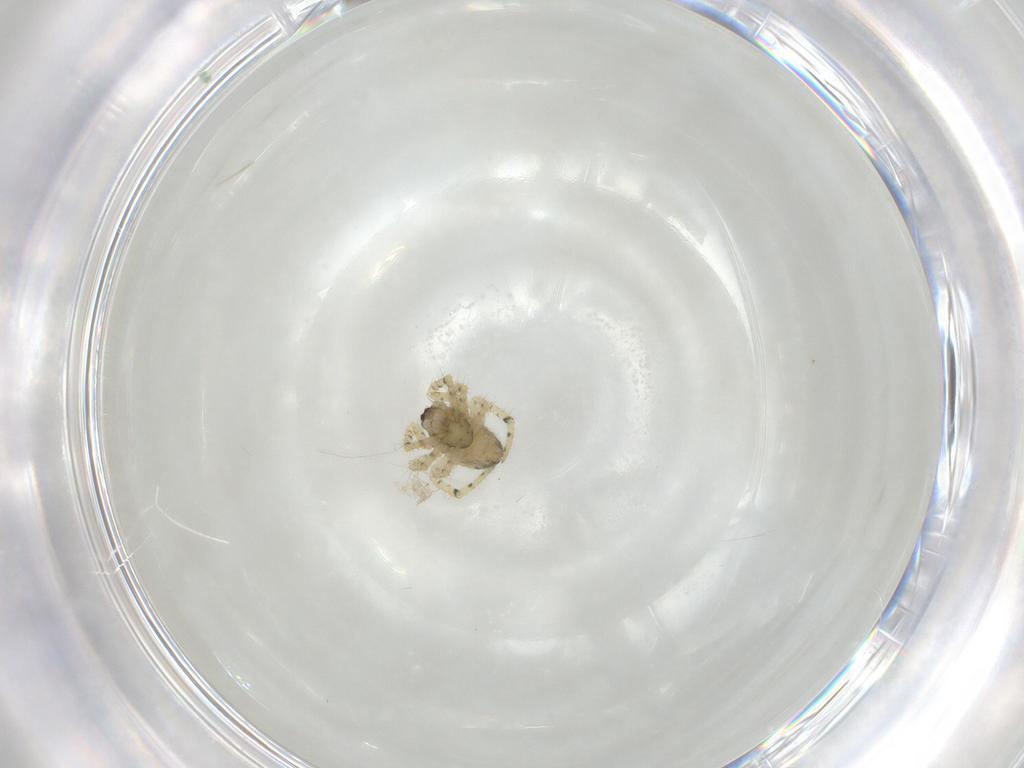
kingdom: Animalia
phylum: Arthropoda
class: Arachnida
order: Araneae
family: Theridiidae
